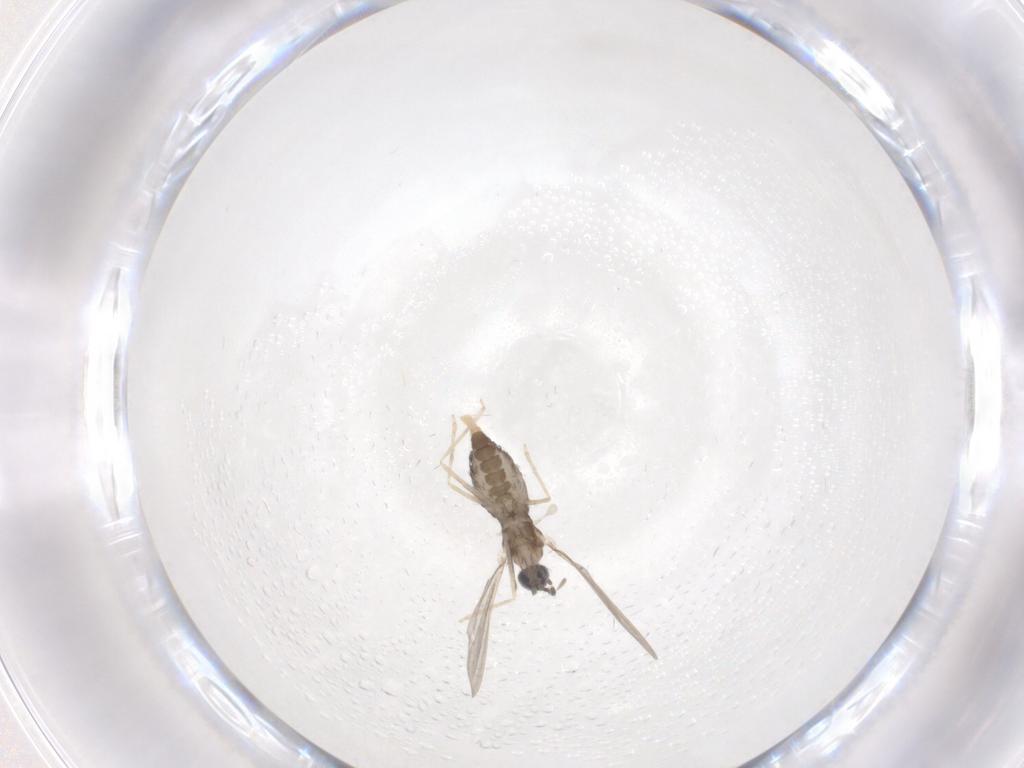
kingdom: Animalia
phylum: Arthropoda
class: Insecta
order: Diptera
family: Cecidomyiidae
